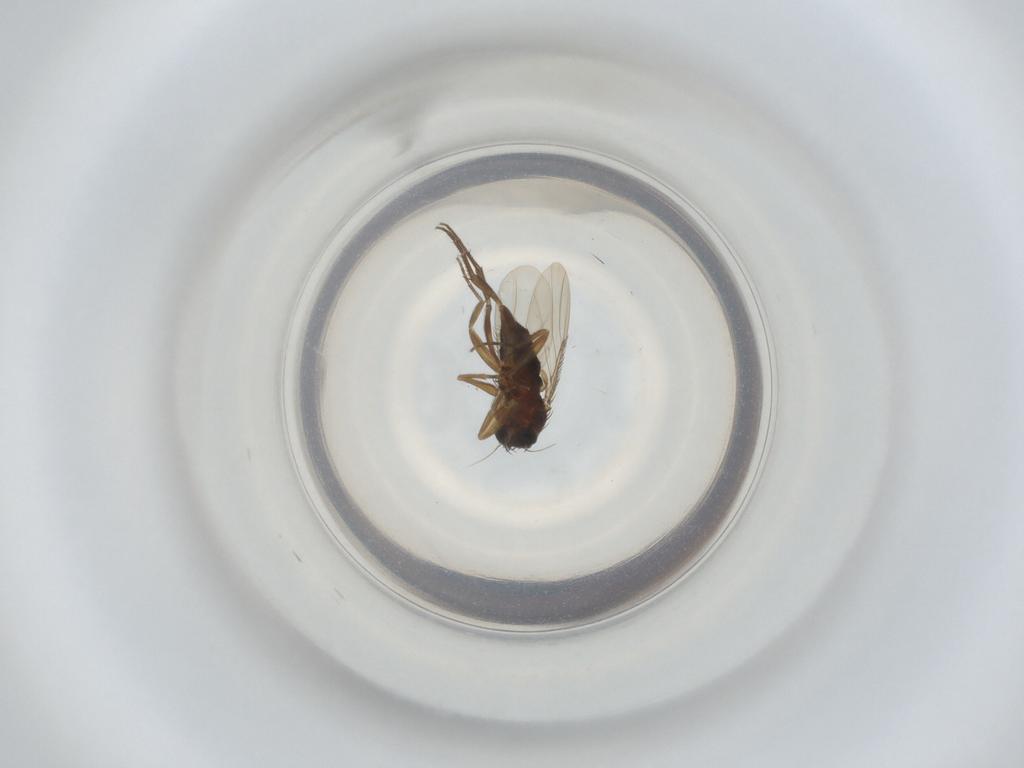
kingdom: Animalia
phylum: Arthropoda
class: Insecta
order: Diptera
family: Phoridae
